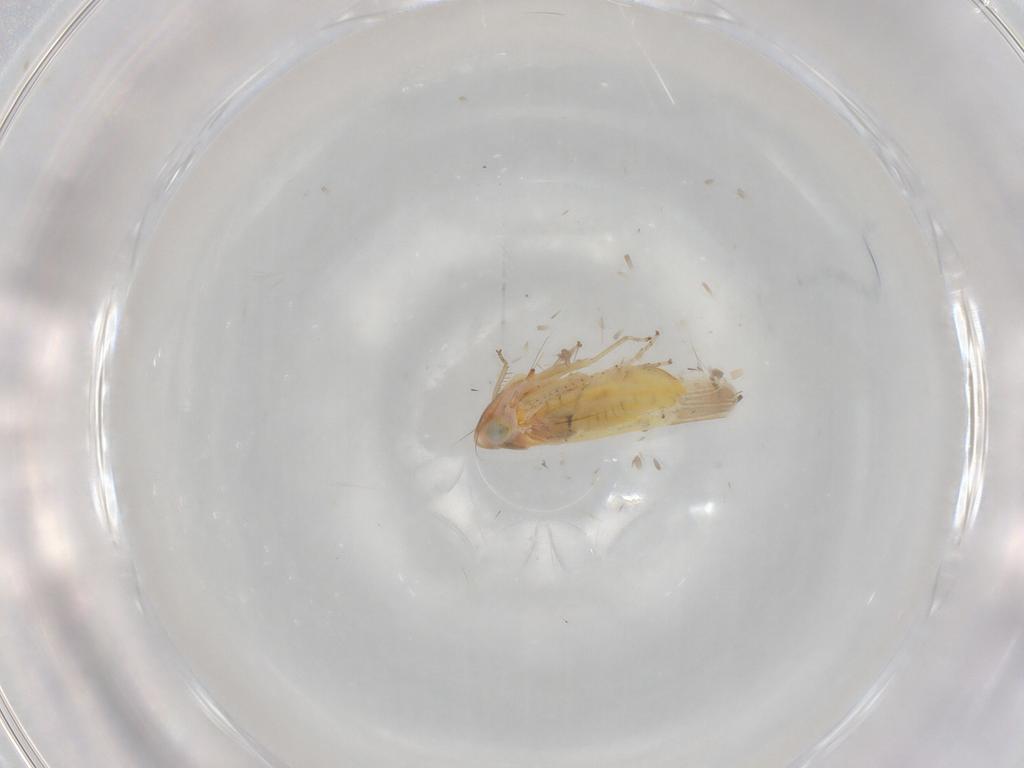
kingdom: Animalia
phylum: Arthropoda
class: Insecta
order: Hemiptera
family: Cicadellidae
